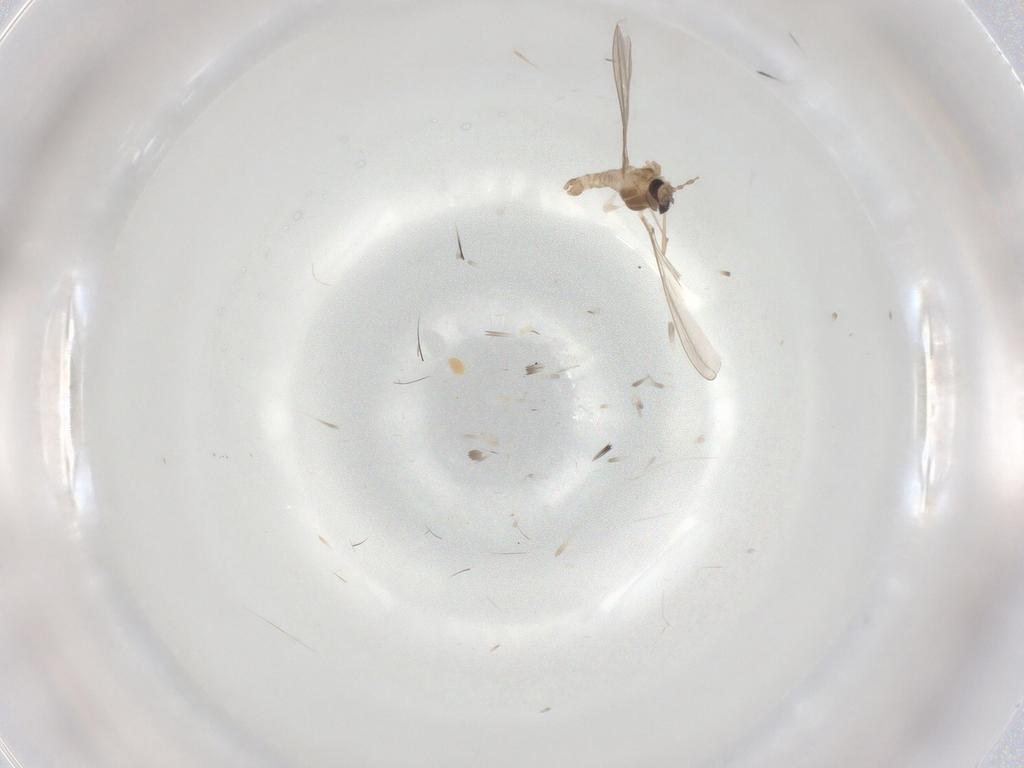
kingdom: Animalia
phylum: Arthropoda
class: Insecta
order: Diptera
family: Cecidomyiidae
